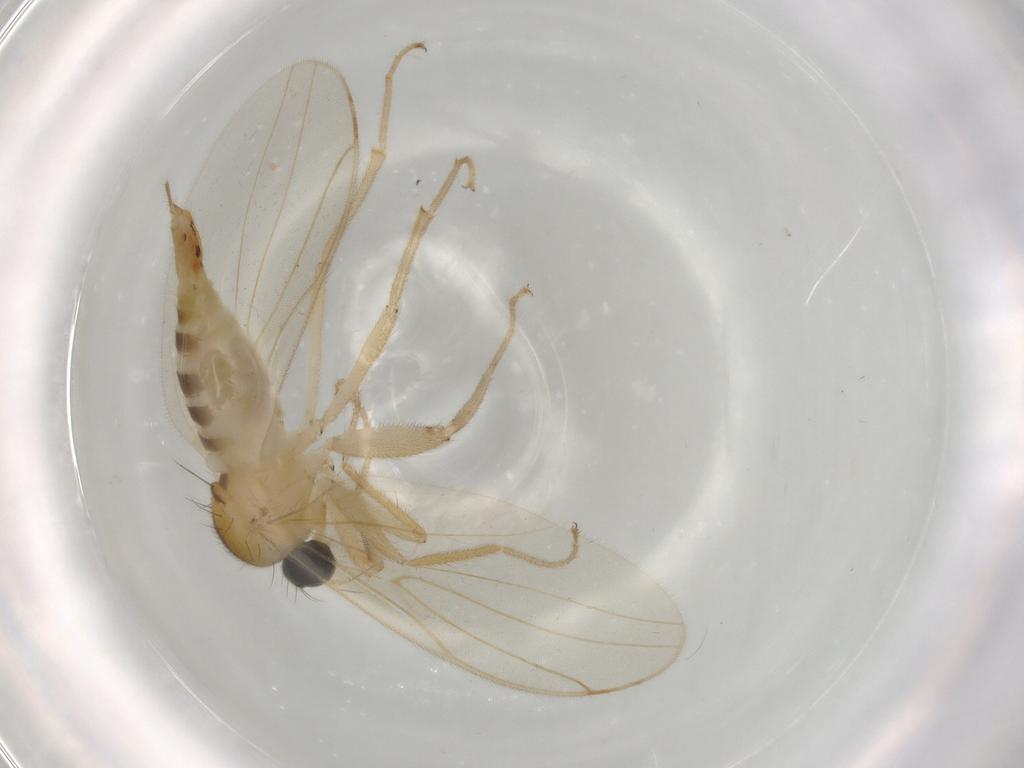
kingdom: Animalia
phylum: Arthropoda
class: Insecta
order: Diptera
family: Hybotidae
